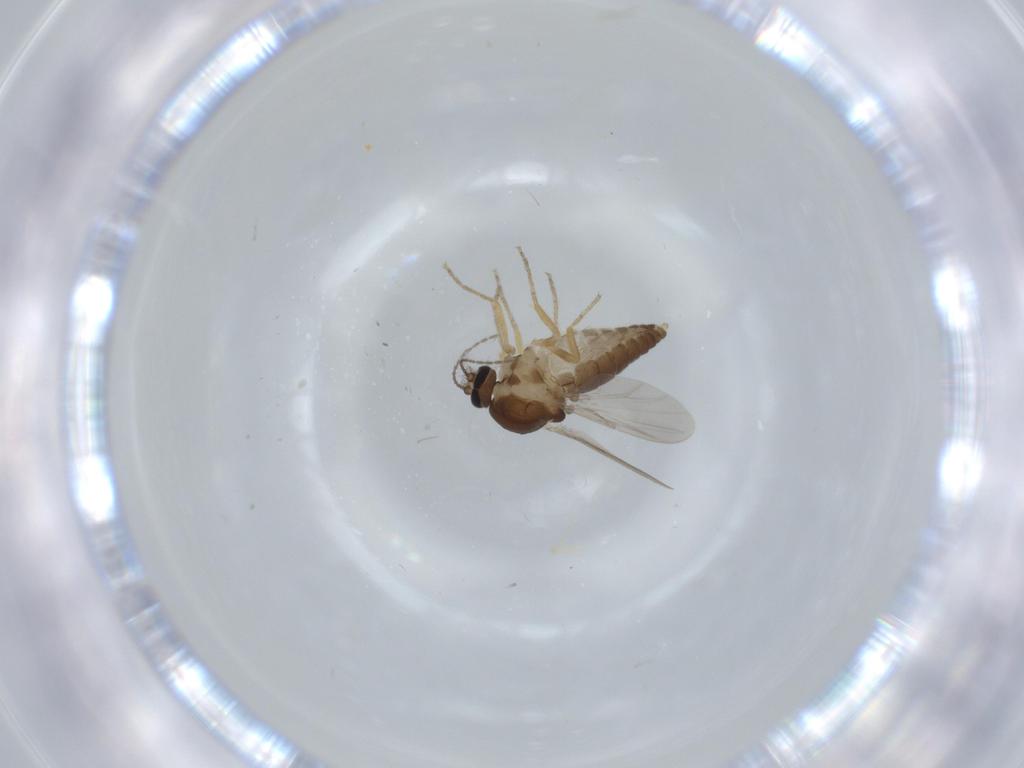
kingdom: Animalia
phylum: Arthropoda
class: Insecta
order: Diptera
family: Ceratopogonidae
